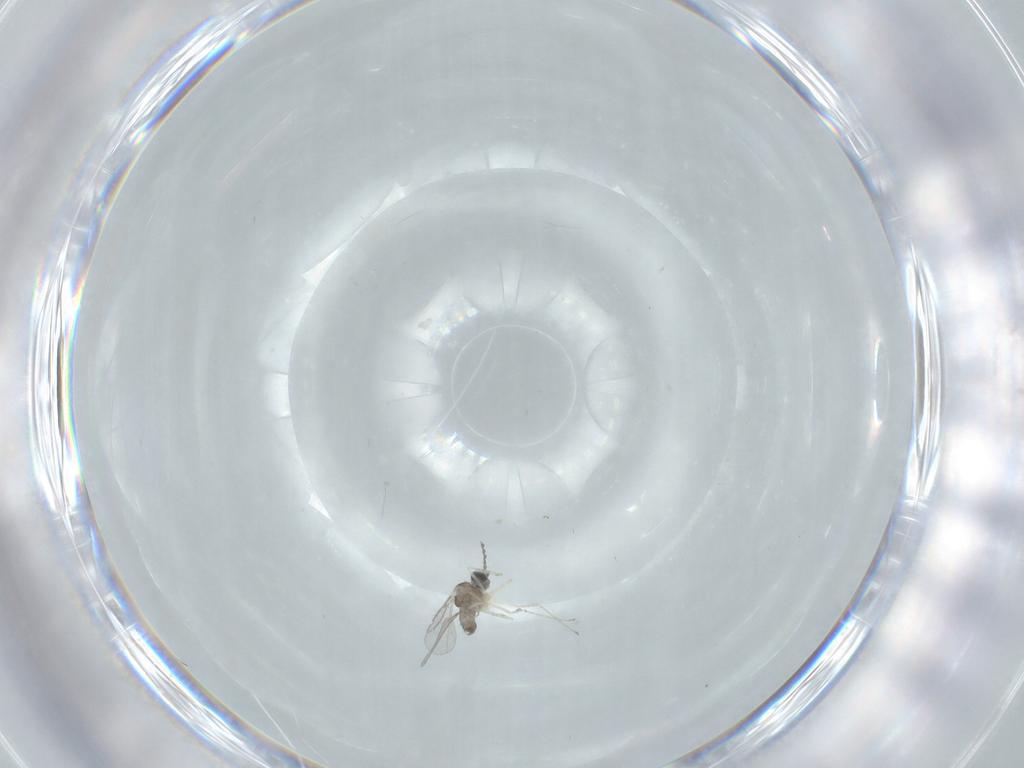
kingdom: Animalia
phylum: Arthropoda
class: Insecta
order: Diptera
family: Cecidomyiidae
